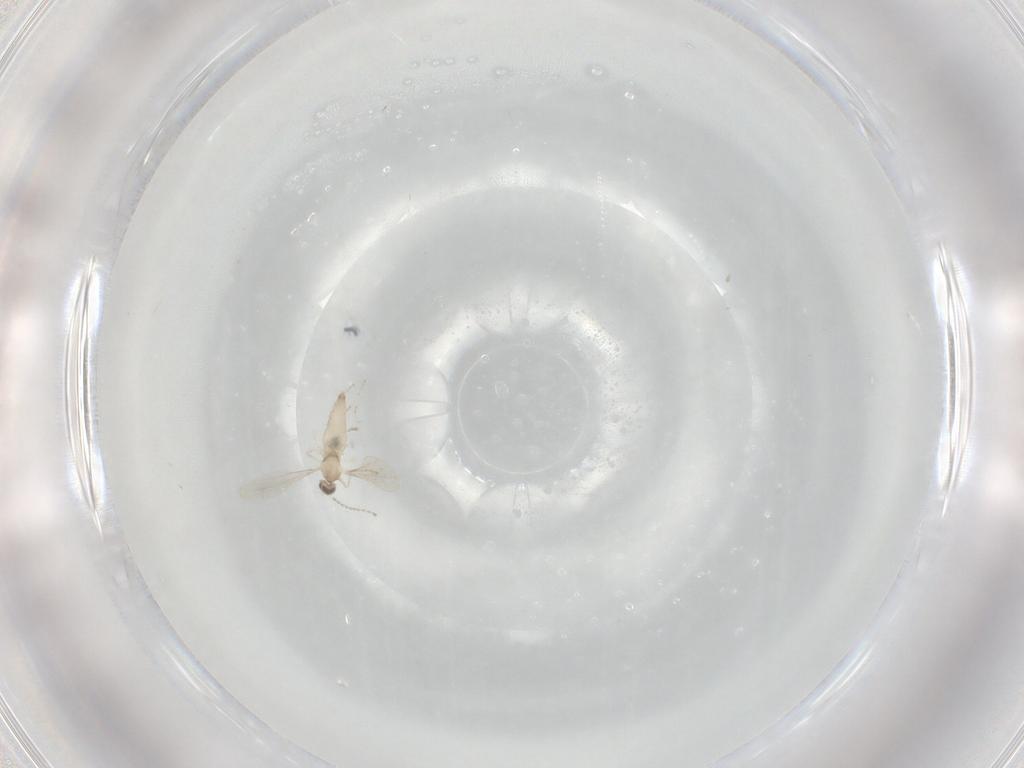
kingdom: Animalia
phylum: Arthropoda
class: Insecta
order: Diptera
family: Cecidomyiidae
